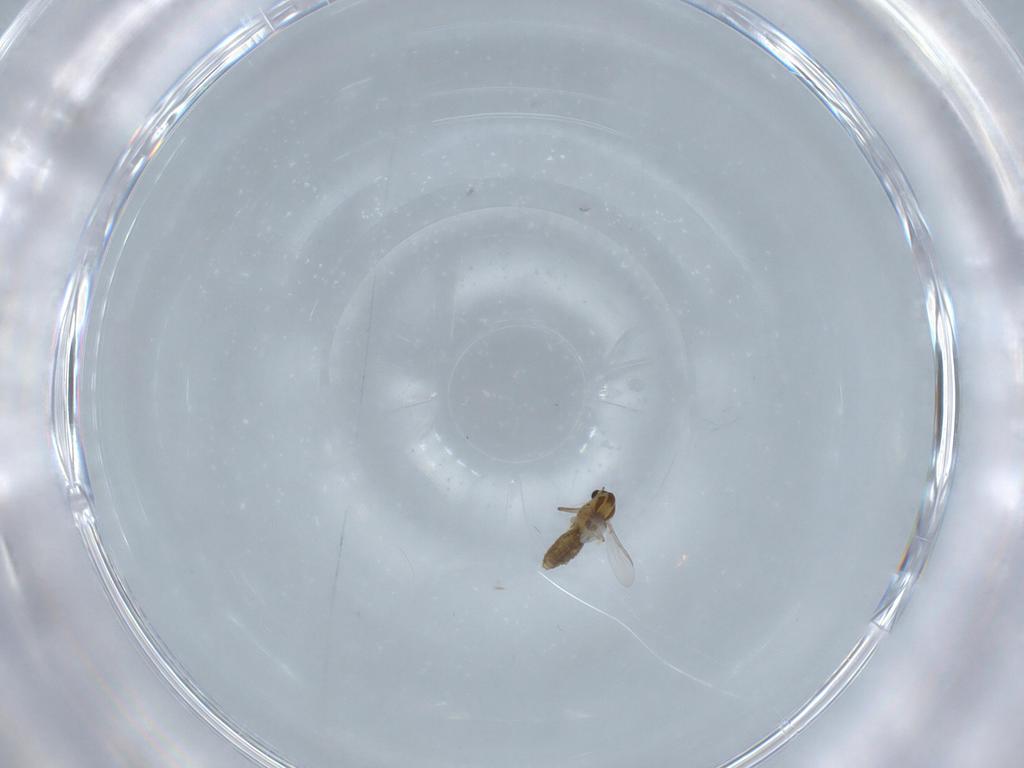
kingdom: Animalia
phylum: Arthropoda
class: Insecta
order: Diptera
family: Chironomidae
